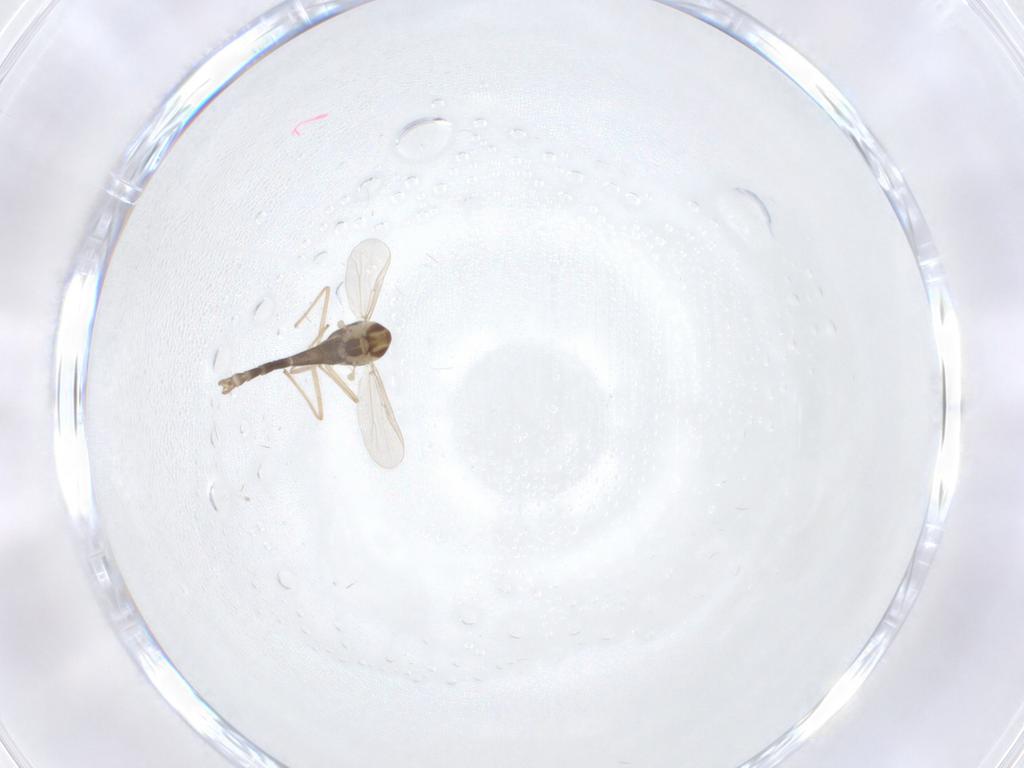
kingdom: Animalia
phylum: Arthropoda
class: Insecta
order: Diptera
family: Chironomidae
